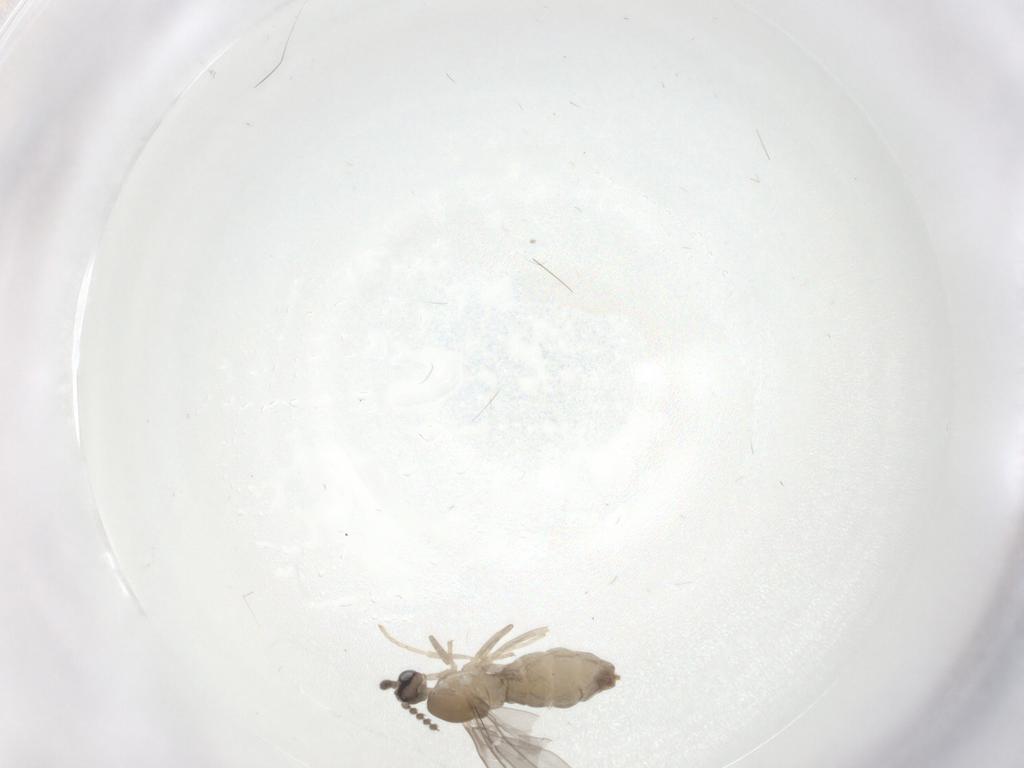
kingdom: Animalia
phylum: Arthropoda
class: Insecta
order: Diptera
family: Cecidomyiidae
